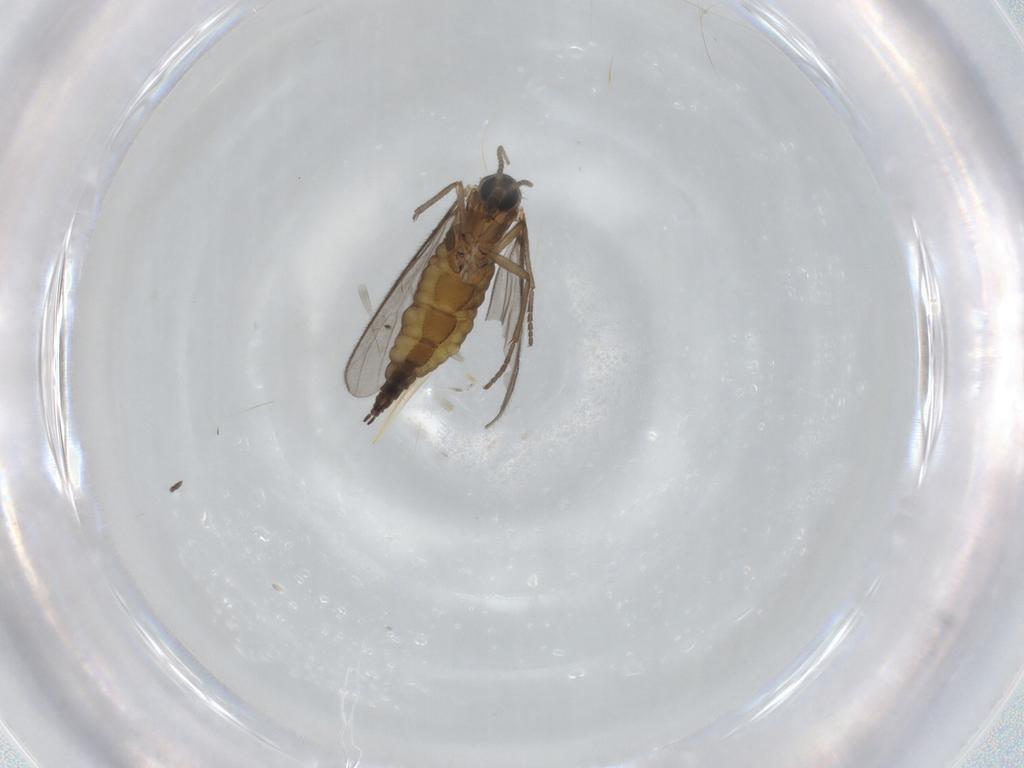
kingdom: Animalia
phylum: Arthropoda
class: Insecta
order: Diptera
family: Sciaridae
